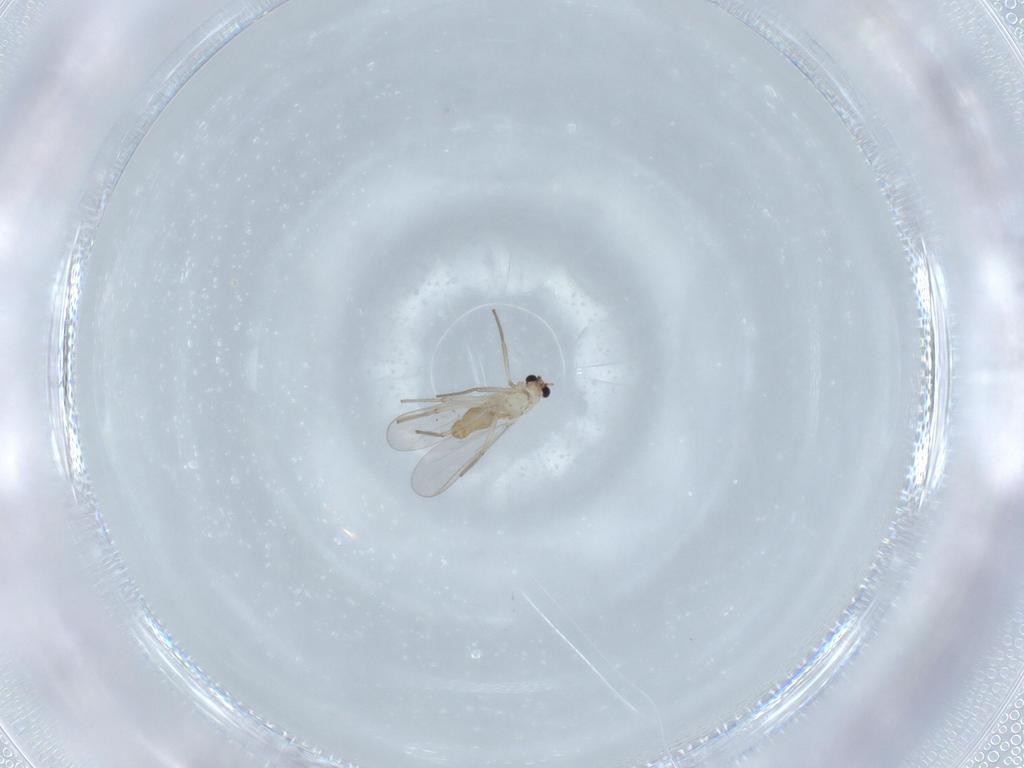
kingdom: Animalia
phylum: Arthropoda
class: Insecta
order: Diptera
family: Chironomidae
